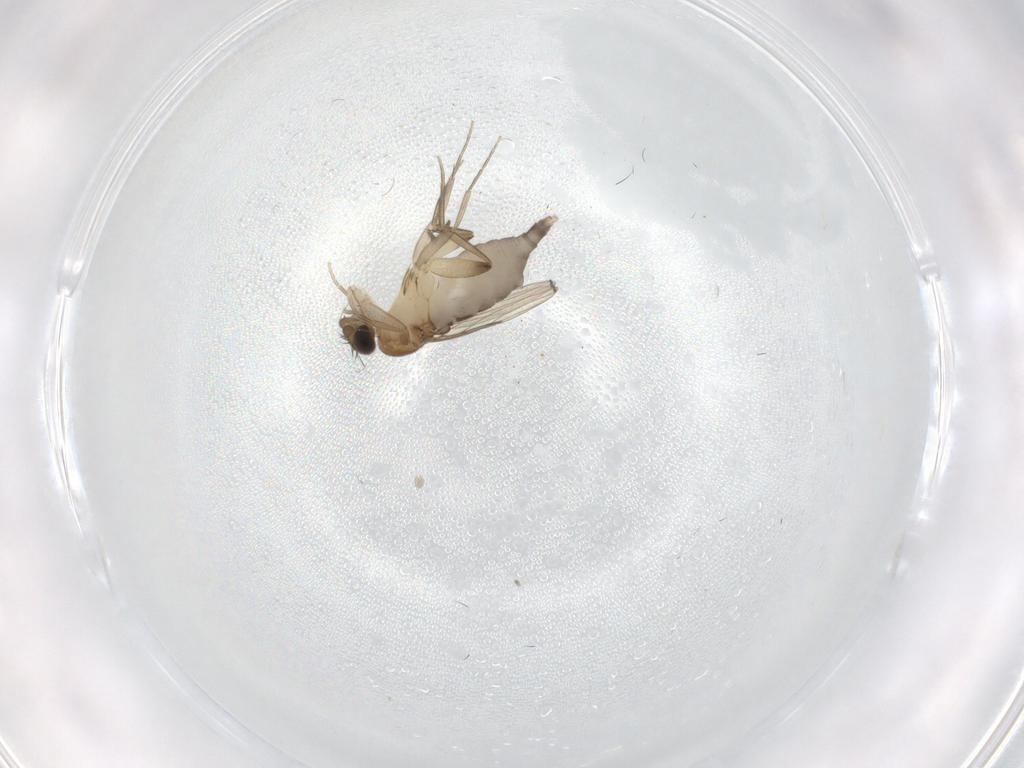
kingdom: Animalia
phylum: Arthropoda
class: Insecta
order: Diptera
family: Phoridae
